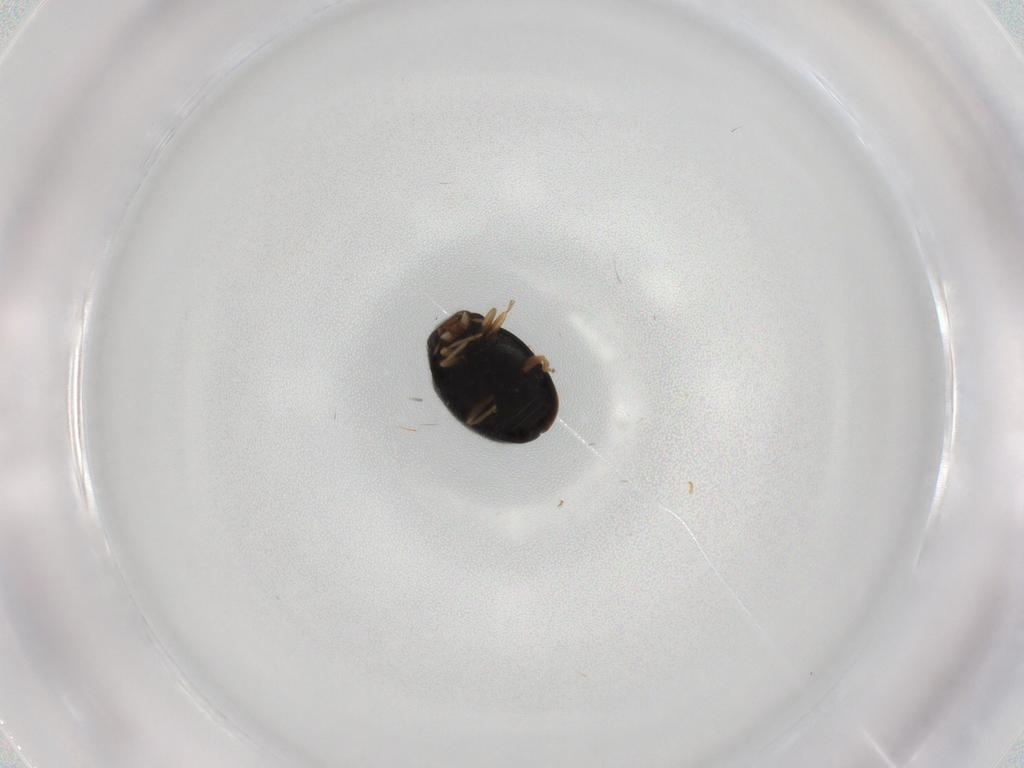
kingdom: Animalia
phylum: Arthropoda
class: Insecta
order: Coleoptera
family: Coccinellidae
